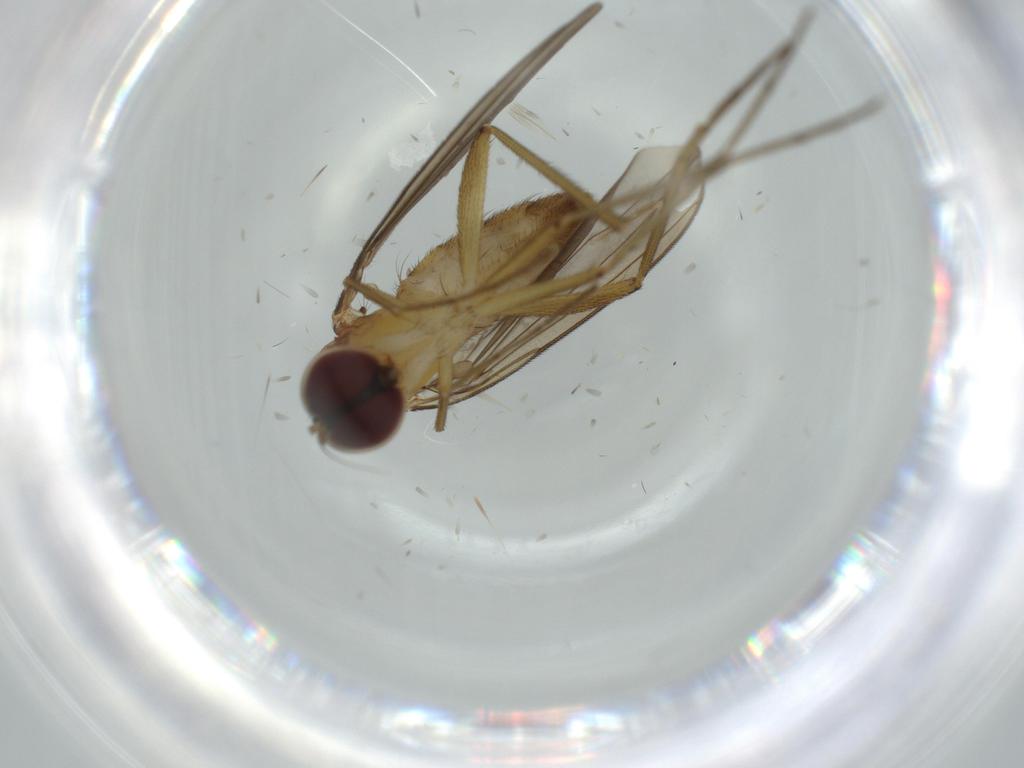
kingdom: Animalia
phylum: Arthropoda
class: Insecta
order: Diptera
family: Dolichopodidae
